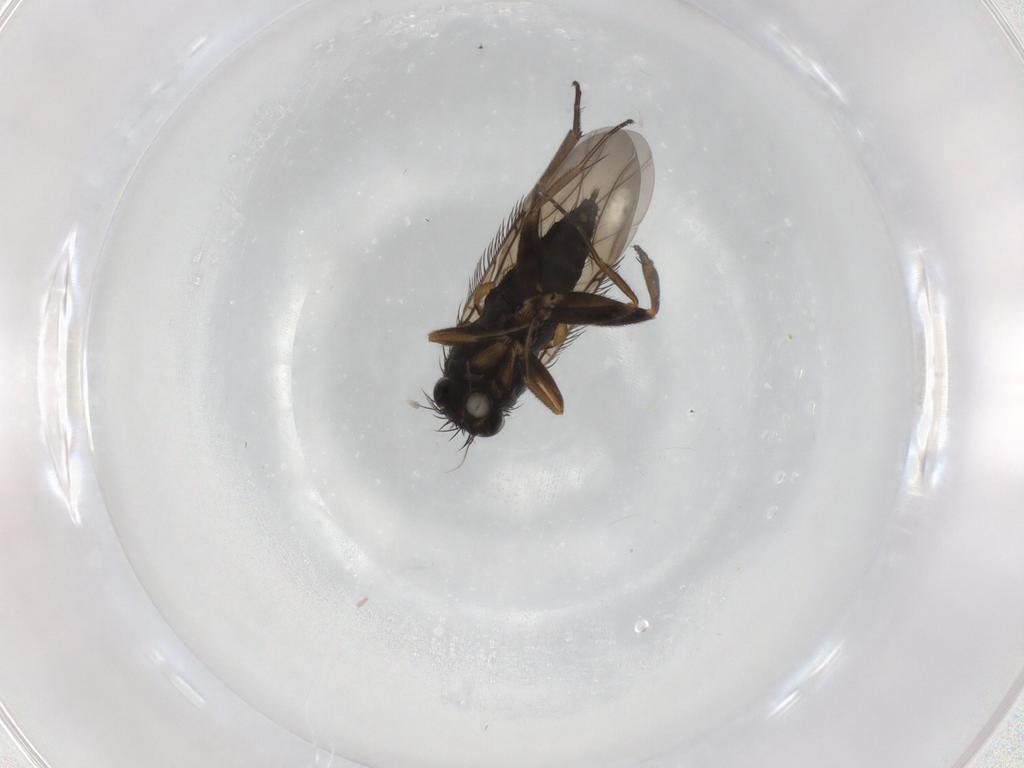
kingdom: Animalia
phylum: Arthropoda
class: Insecta
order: Diptera
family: Phoridae
